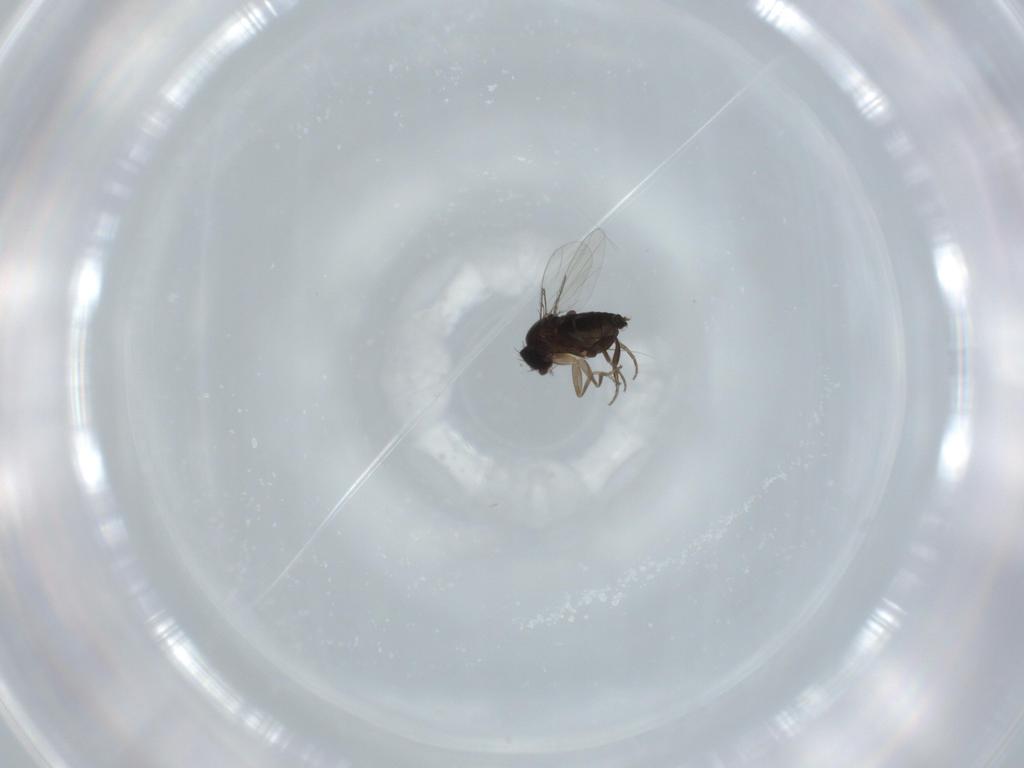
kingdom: Animalia
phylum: Arthropoda
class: Insecta
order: Diptera
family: Phoridae
